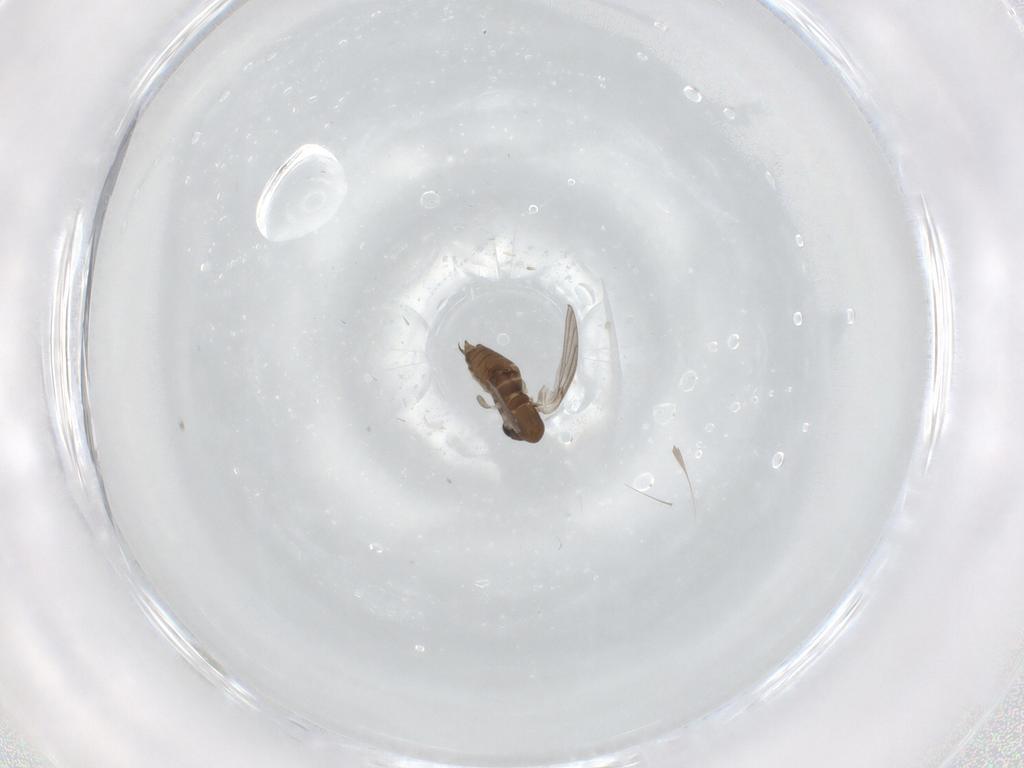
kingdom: Animalia
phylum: Arthropoda
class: Insecta
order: Diptera
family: Cecidomyiidae
